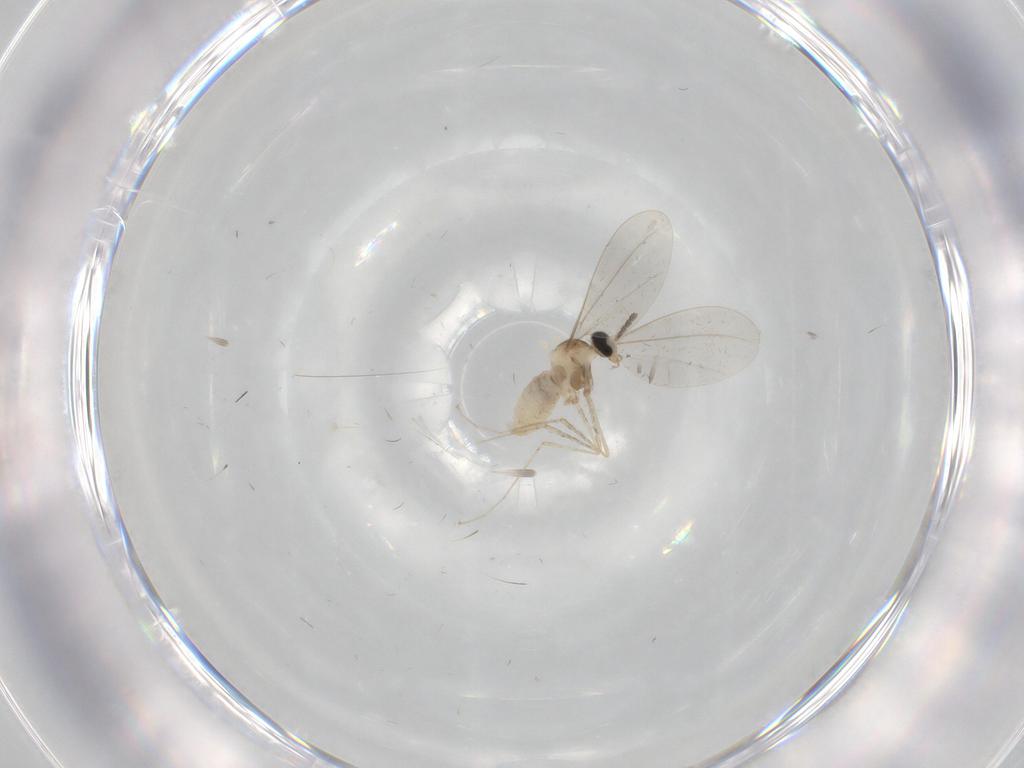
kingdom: Animalia
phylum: Arthropoda
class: Insecta
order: Diptera
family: Cecidomyiidae
